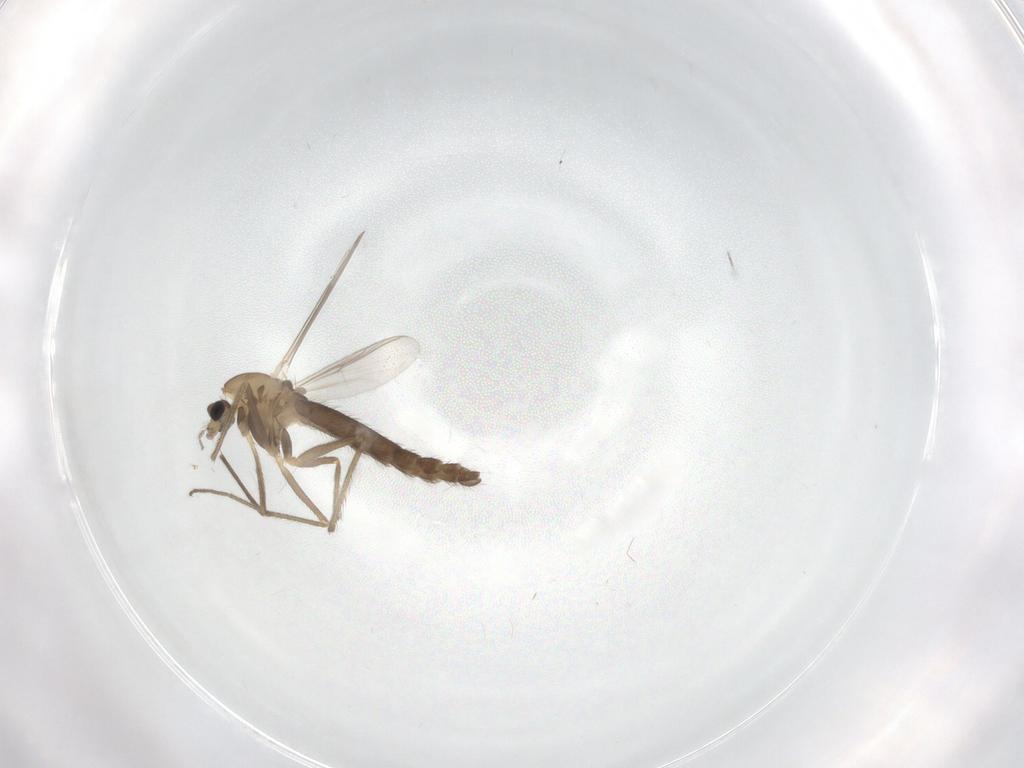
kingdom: Animalia
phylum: Arthropoda
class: Insecta
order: Diptera
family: Chironomidae
